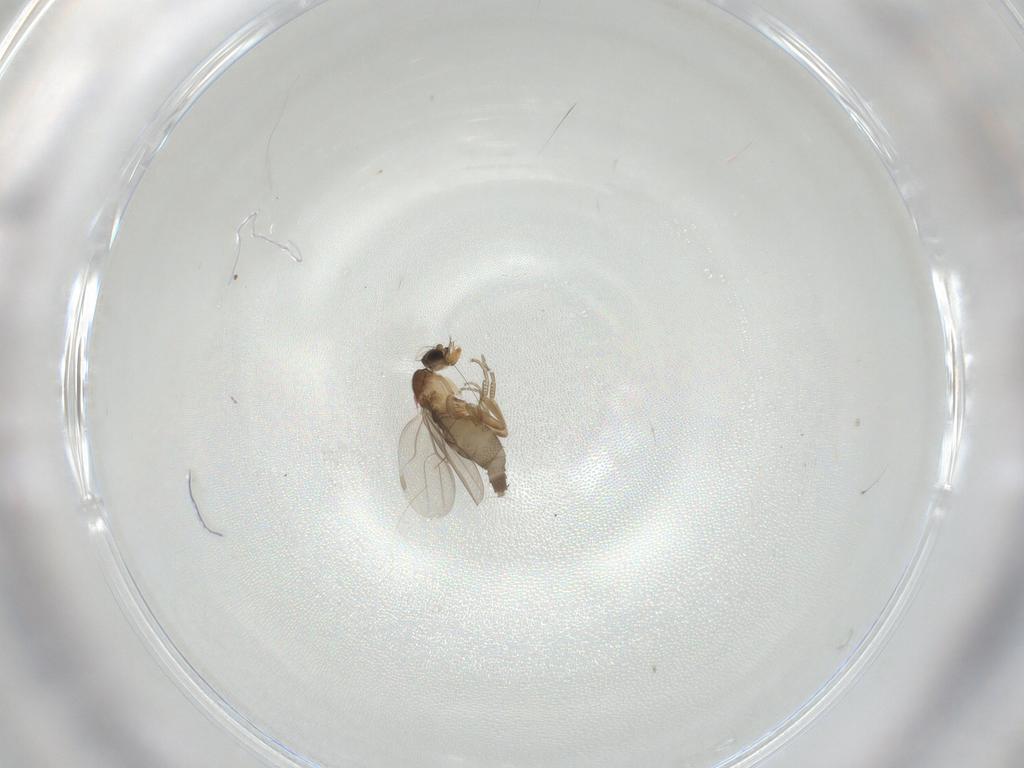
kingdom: Animalia
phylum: Arthropoda
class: Insecta
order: Diptera
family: Phoridae
